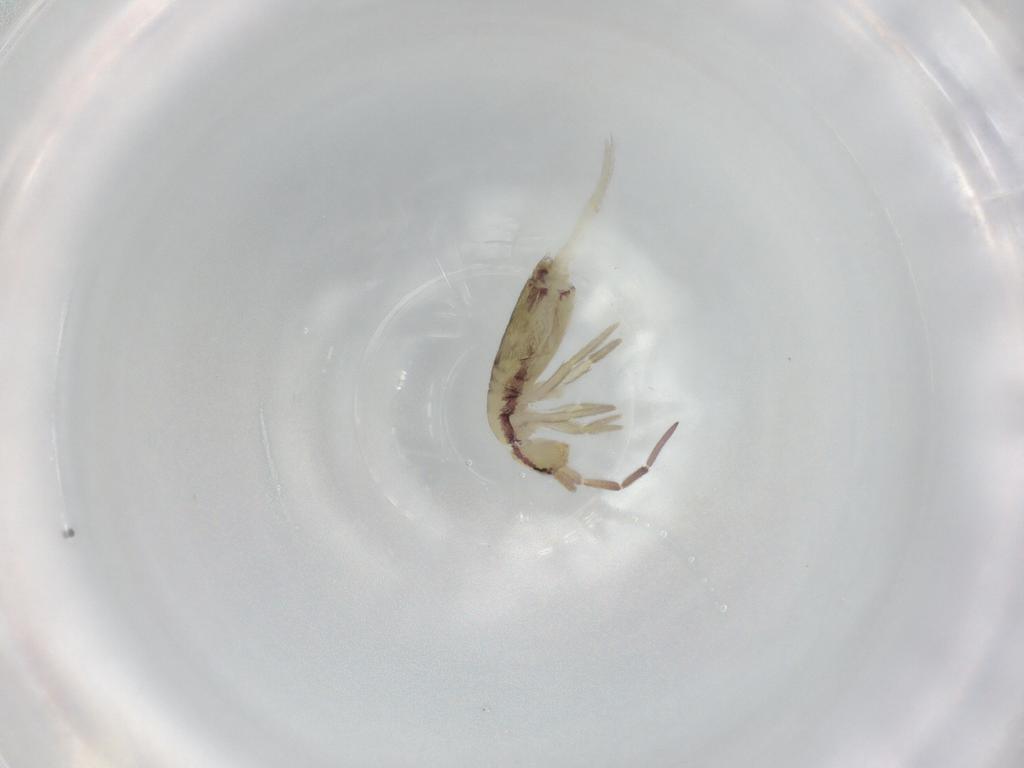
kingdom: Animalia
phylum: Arthropoda
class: Collembola
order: Entomobryomorpha
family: Entomobryidae
